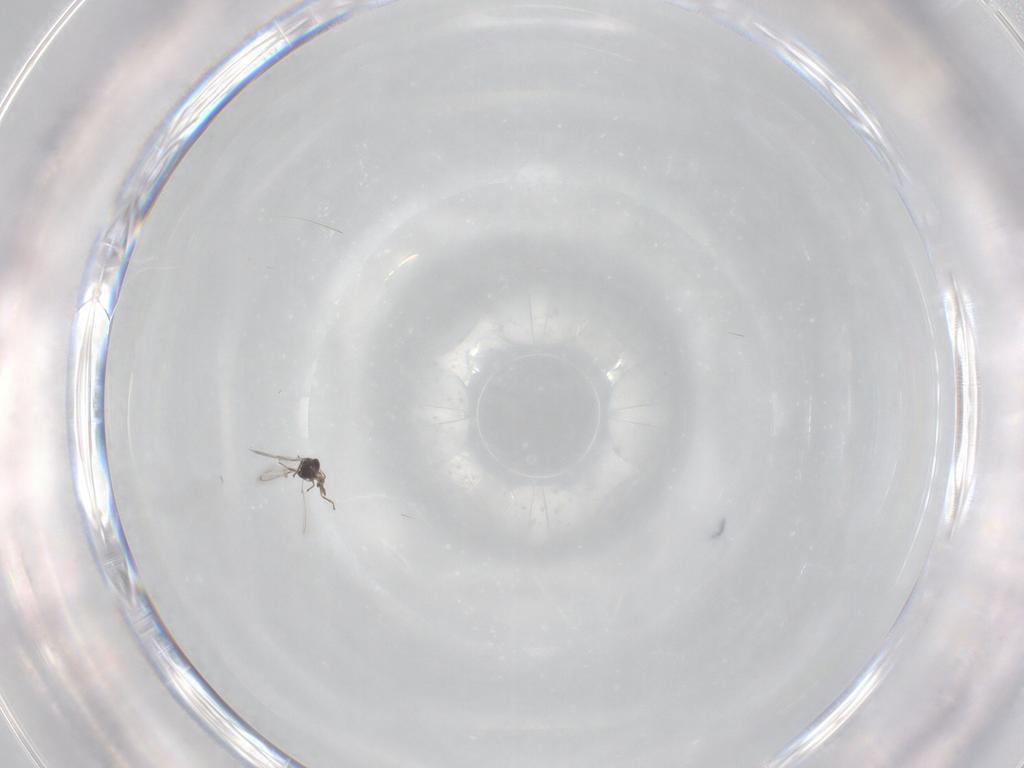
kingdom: Animalia
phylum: Arthropoda
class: Insecta
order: Hymenoptera
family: Mymaridae
